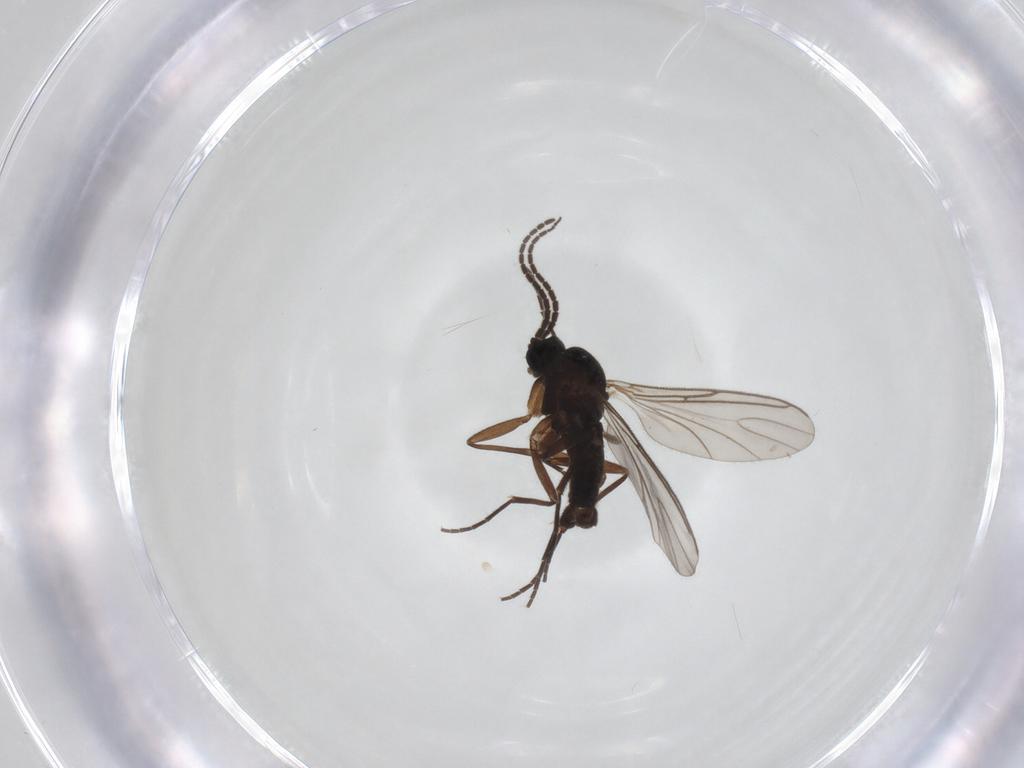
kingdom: Animalia
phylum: Arthropoda
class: Insecta
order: Diptera
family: Sciaridae
